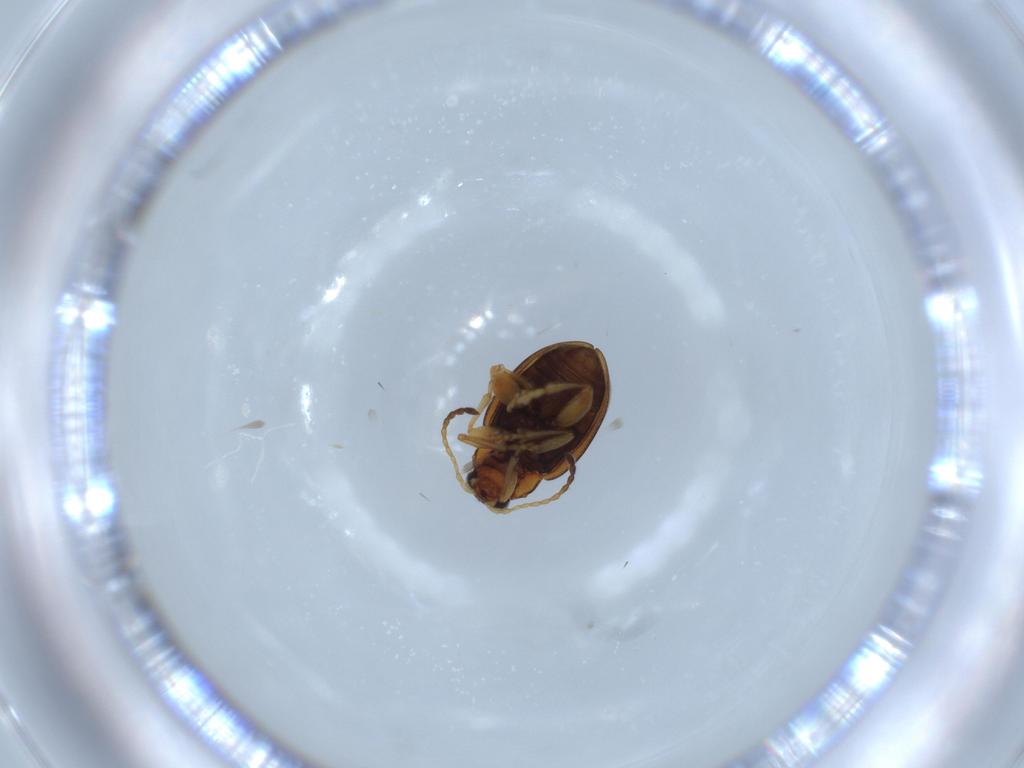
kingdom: Animalia
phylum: Arthropoda
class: Insecta
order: Coleoptera
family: Chrysomelidae
